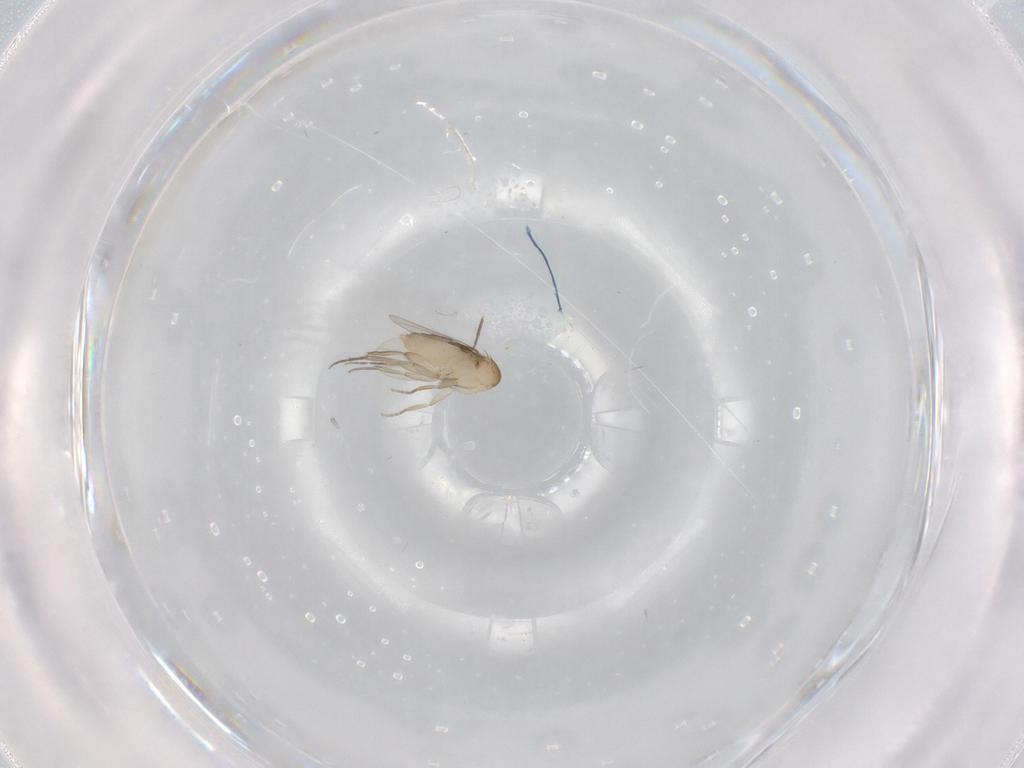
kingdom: Animalia
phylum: Arthropoda
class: Insecta
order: Diptera
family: Phoridae
